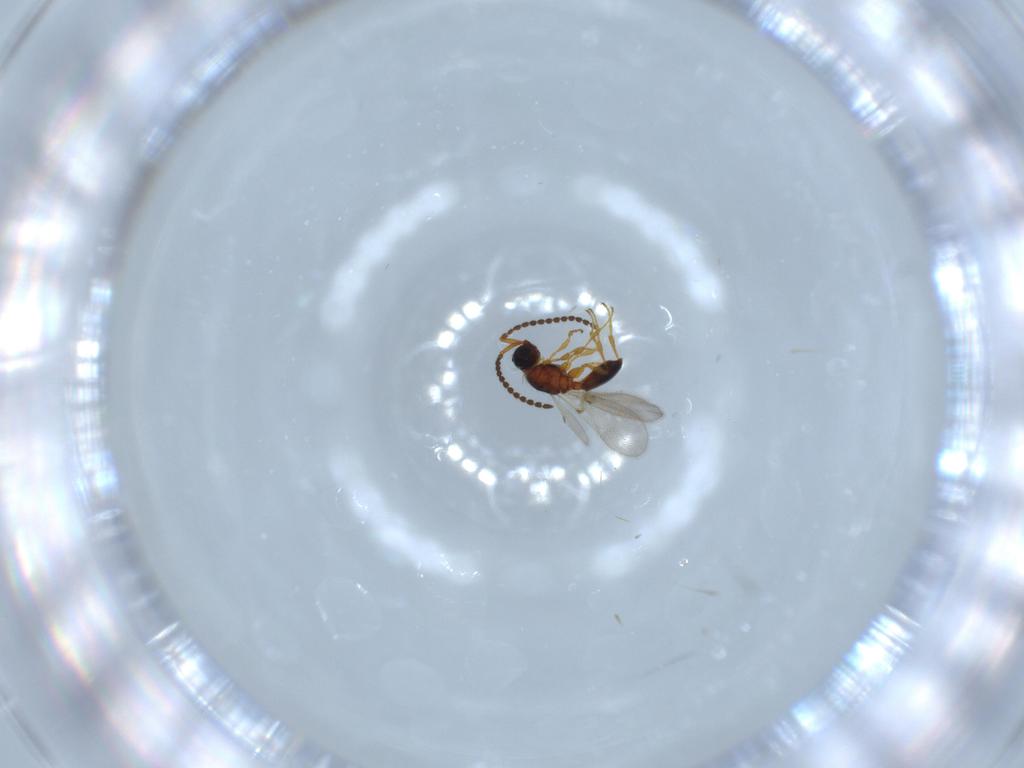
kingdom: Animalia
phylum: Arthropoda
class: Insecta
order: Hymenoptera
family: Diapriidae
